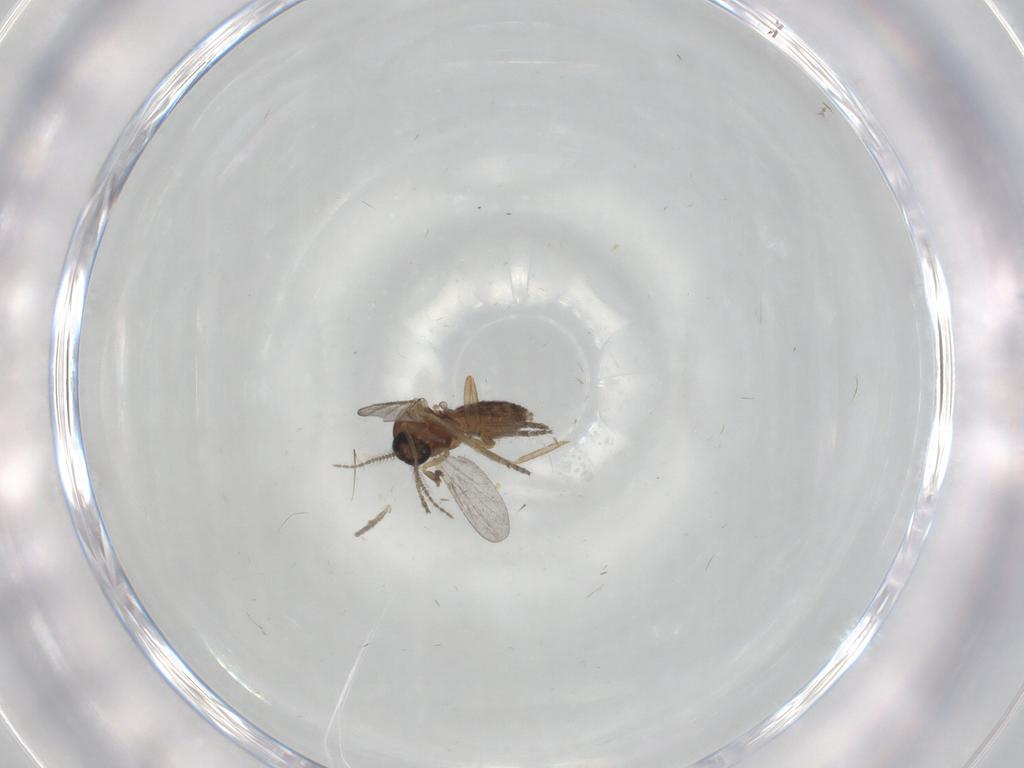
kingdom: Animalia
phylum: Arthropoda
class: Insecta
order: Diptera
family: Ceratopogonidae
